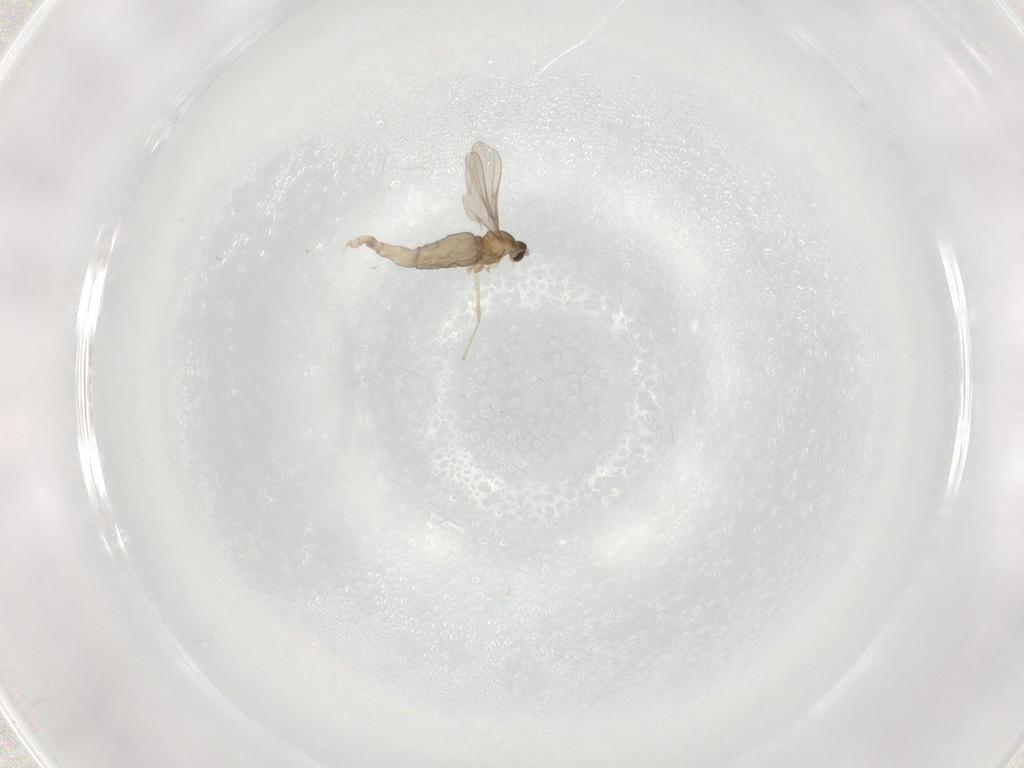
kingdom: Animalia
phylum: Arthropoda
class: Insecta
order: Diptera
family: Cecidomyiidae
